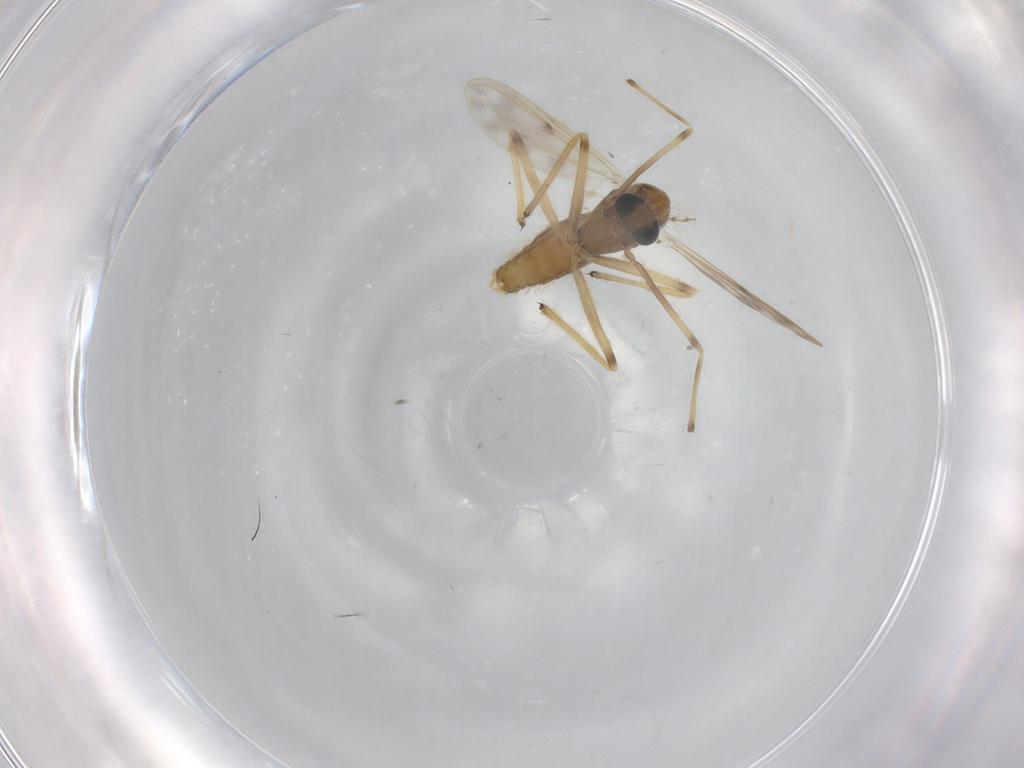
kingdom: Animalia
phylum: Arthropoda
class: Insecta
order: Diptera
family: Chironomidae
